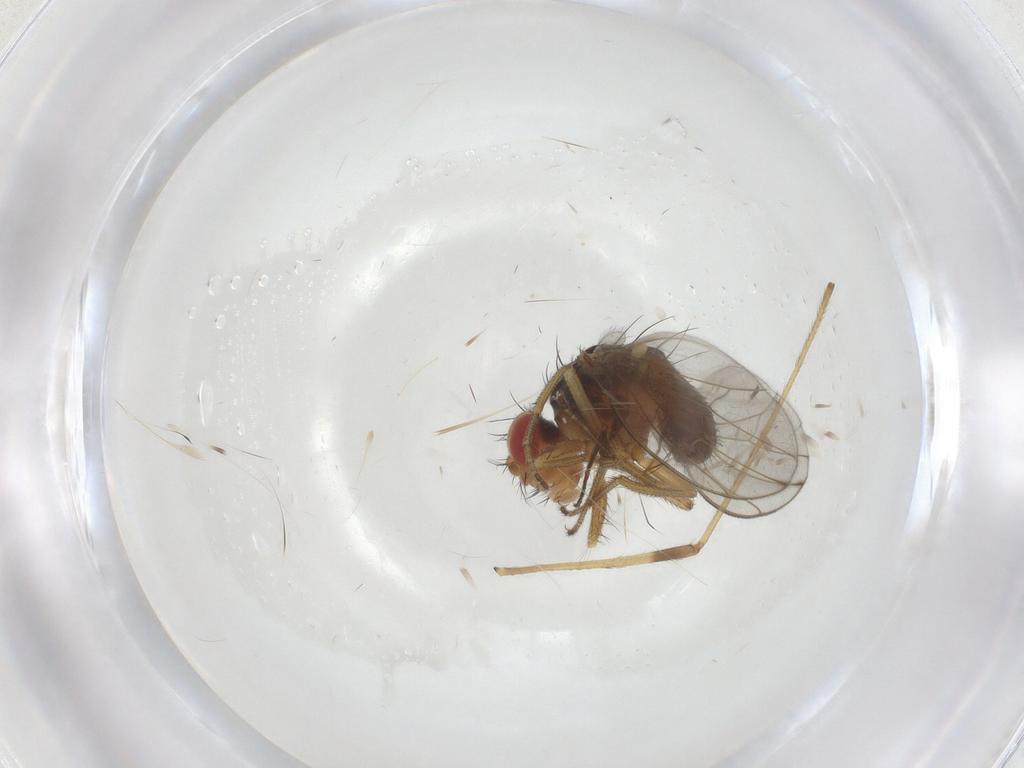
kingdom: Animalia
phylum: Arthropoda
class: Insecta
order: Diptera
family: Drosophilidae
